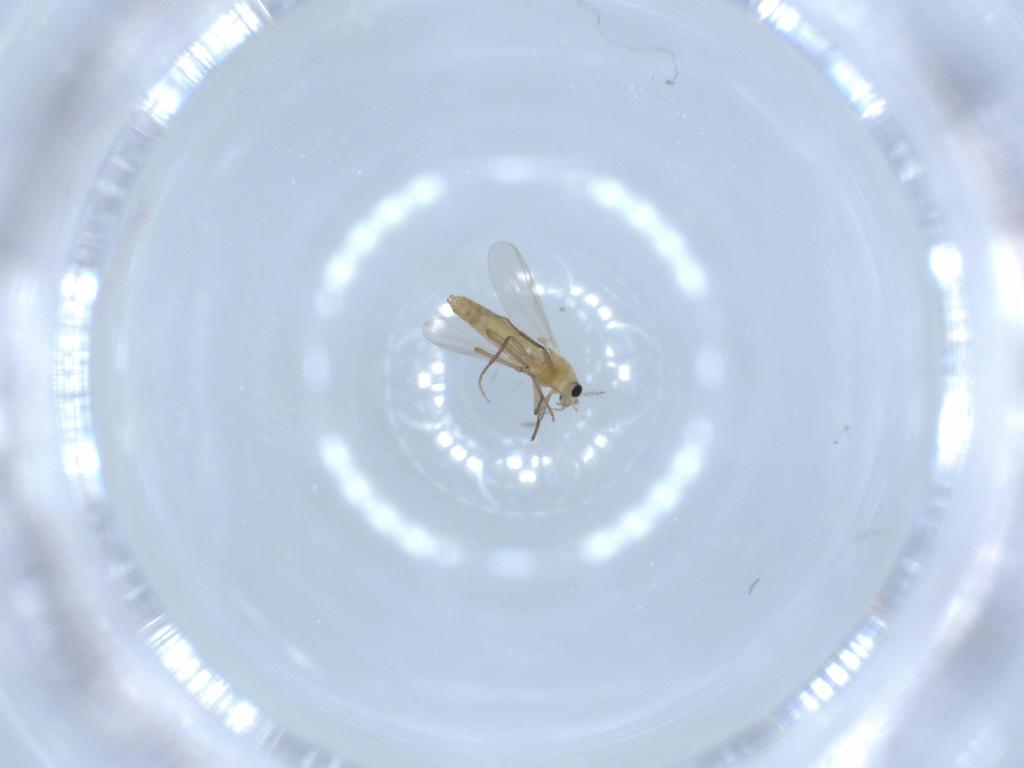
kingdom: Animalia
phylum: Arthropoda
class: Insecta
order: Diptera
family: Chironomidae
